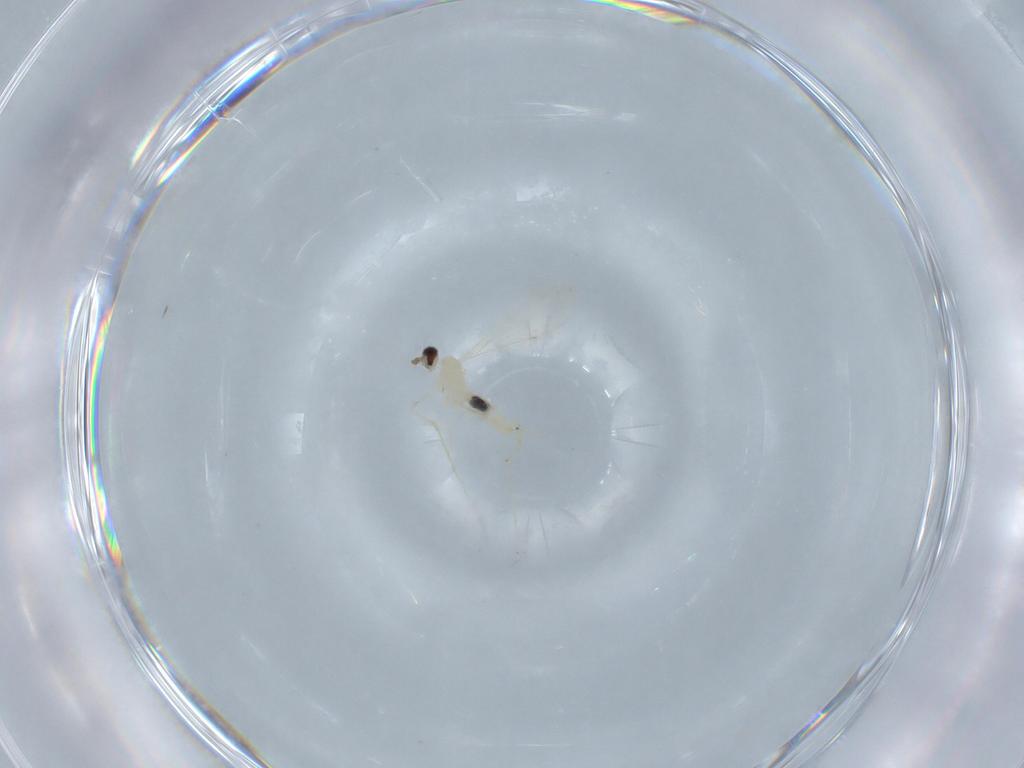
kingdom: Animalia
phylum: Arthropoda
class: Insecta
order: Diptera
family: Cecidomyiidae
